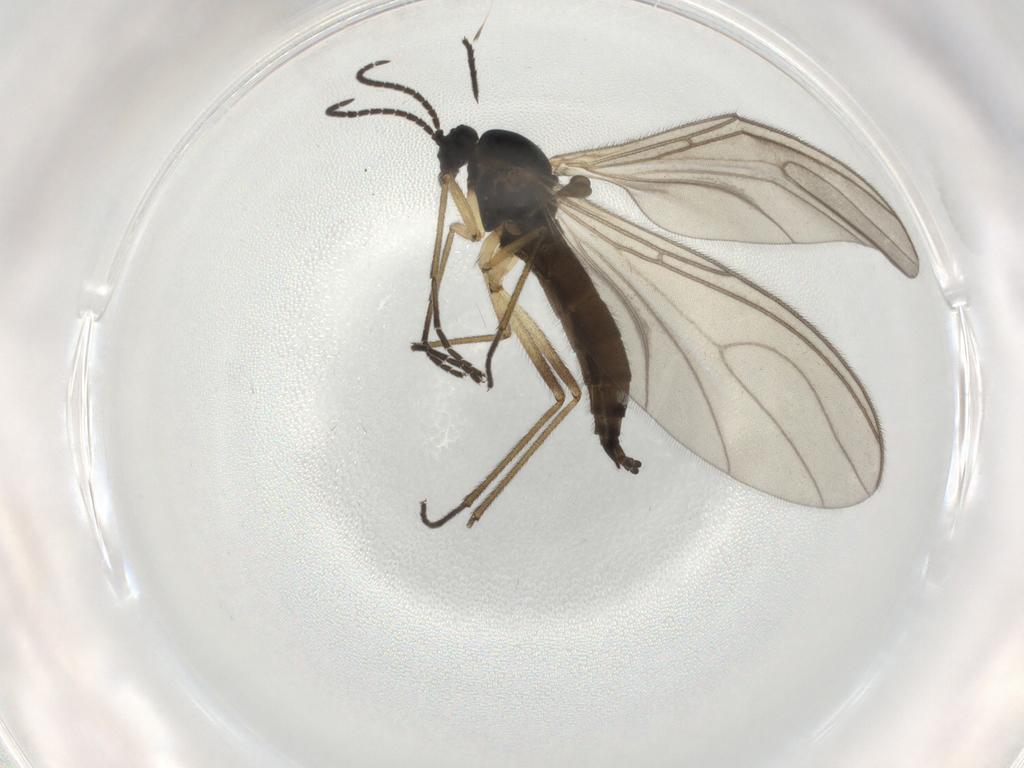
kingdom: Animalia
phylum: Arthropoda
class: Insecta
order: Diptera
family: Sciaridae
